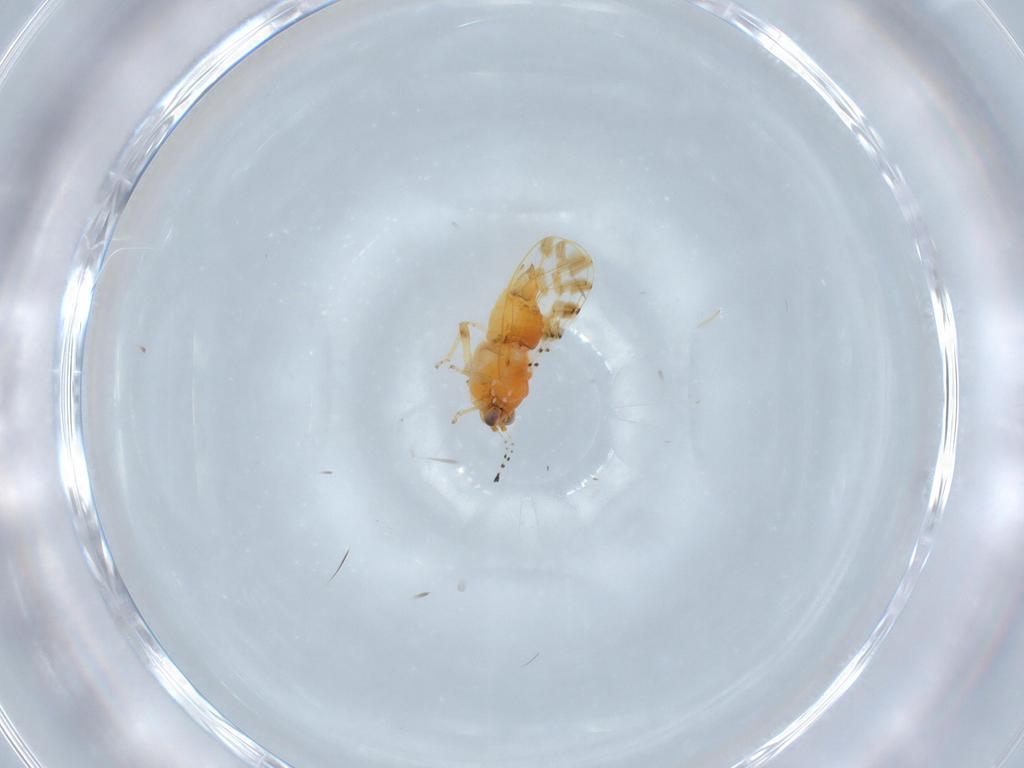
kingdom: Animalia
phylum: Arthropoda
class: Insecta
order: Hemiptera
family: Aphalaridae
